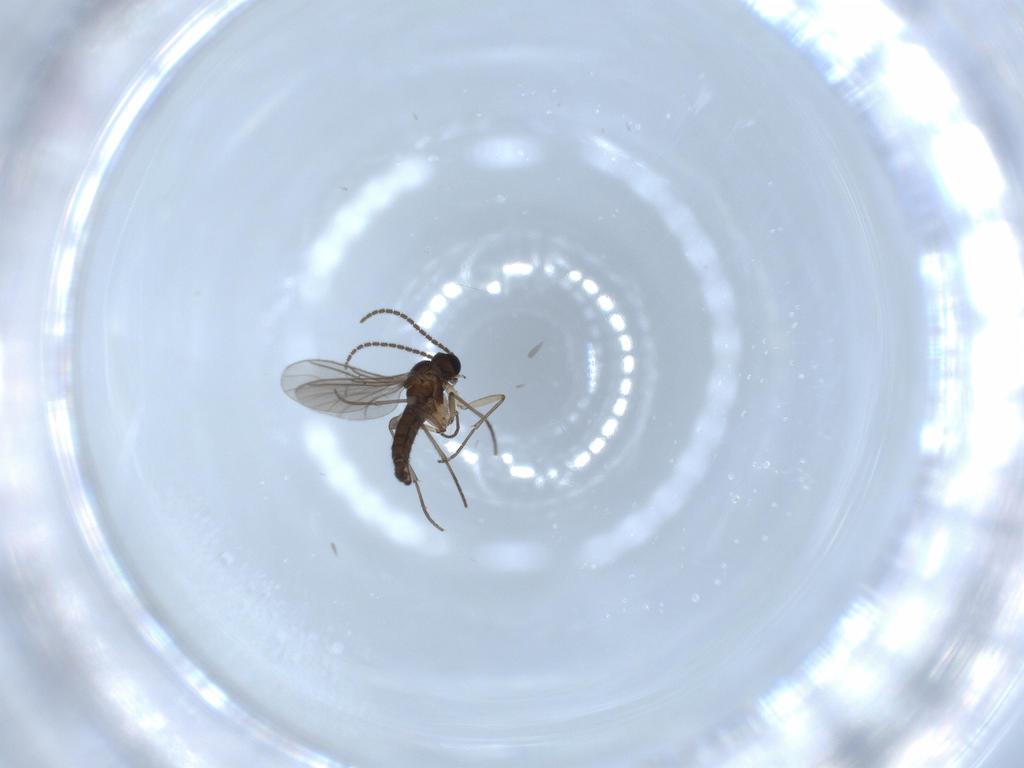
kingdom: Animalia
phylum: Arthropoda
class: Insecta
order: Diptera
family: Sciaridae
